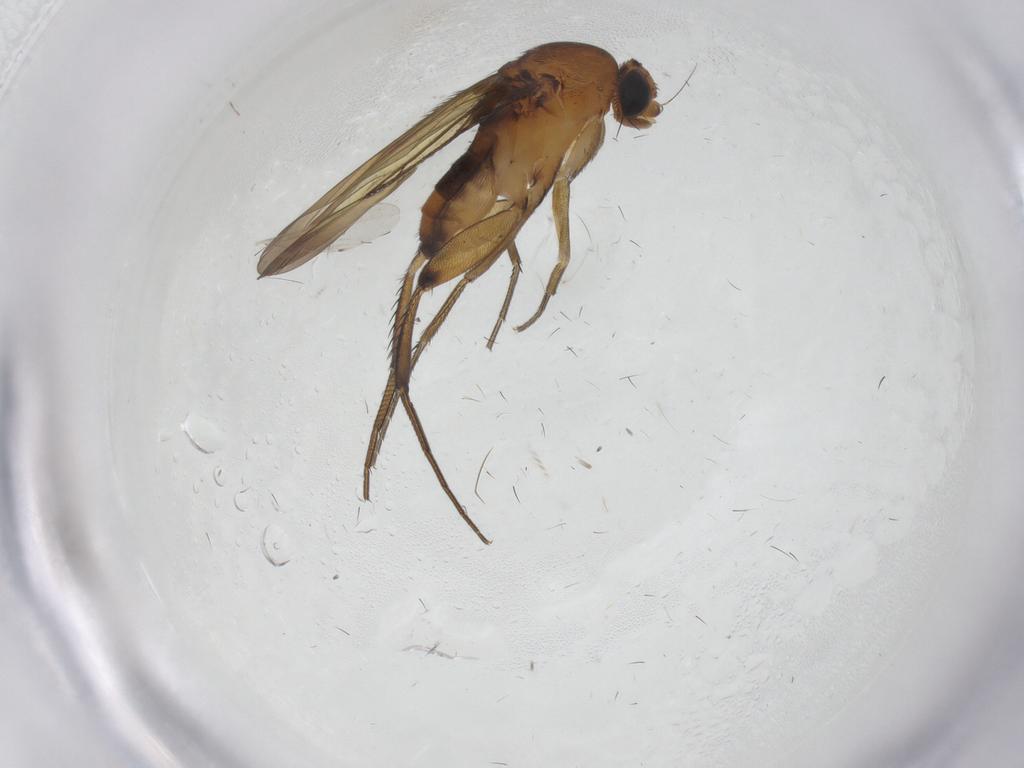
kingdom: Animalia
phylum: Arthropoda
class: Insecta
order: Diptera
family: Phoridae
